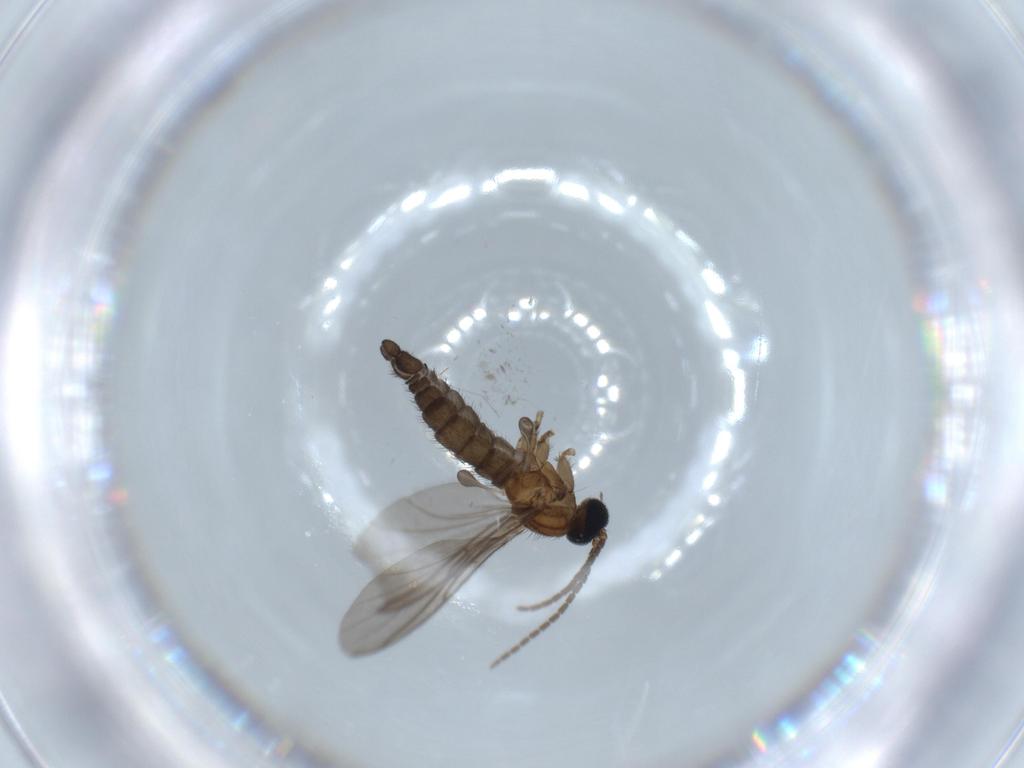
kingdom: Animalia
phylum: Arthropoda
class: Insecta
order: Diptera
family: Sciaridae
